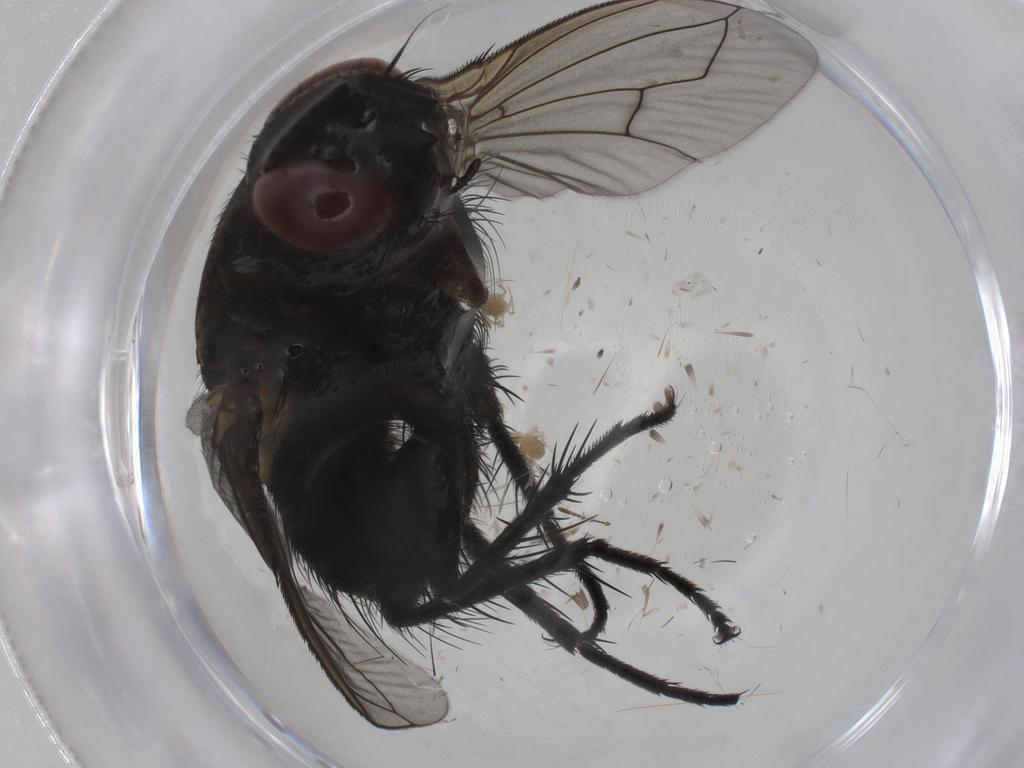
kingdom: Animalia
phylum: Arthropoda
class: Insecta
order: Diptera
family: Tachinidae
